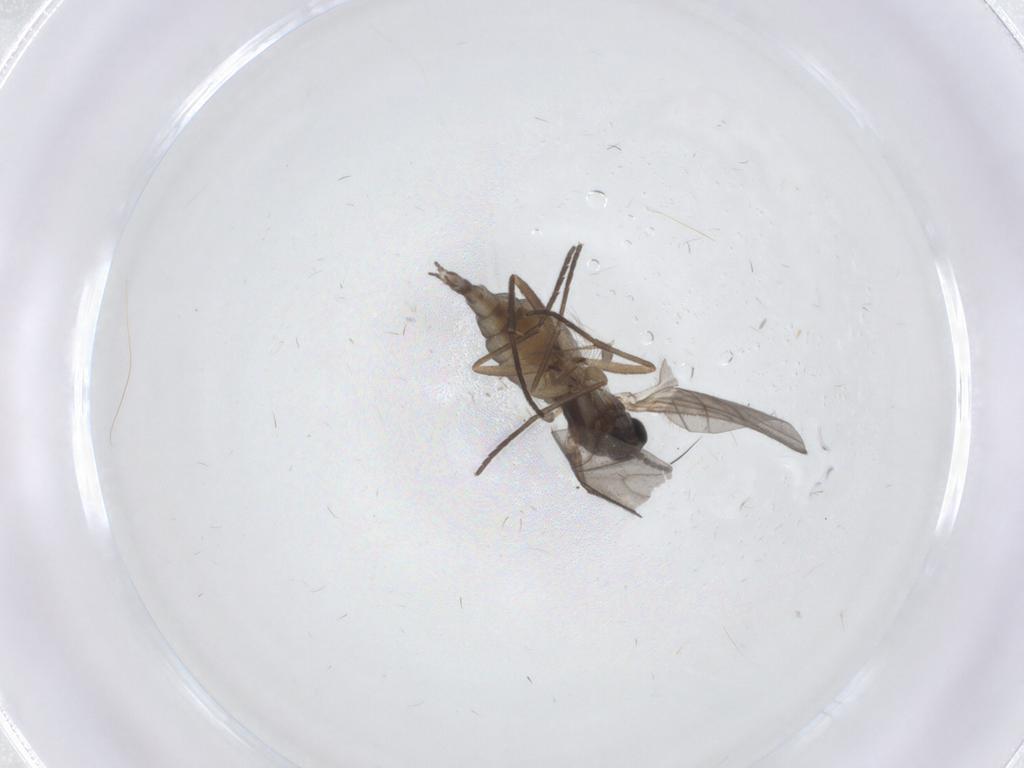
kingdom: Animalia
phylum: Arthropoda
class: Insecta
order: Diptera
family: Sciaridae
